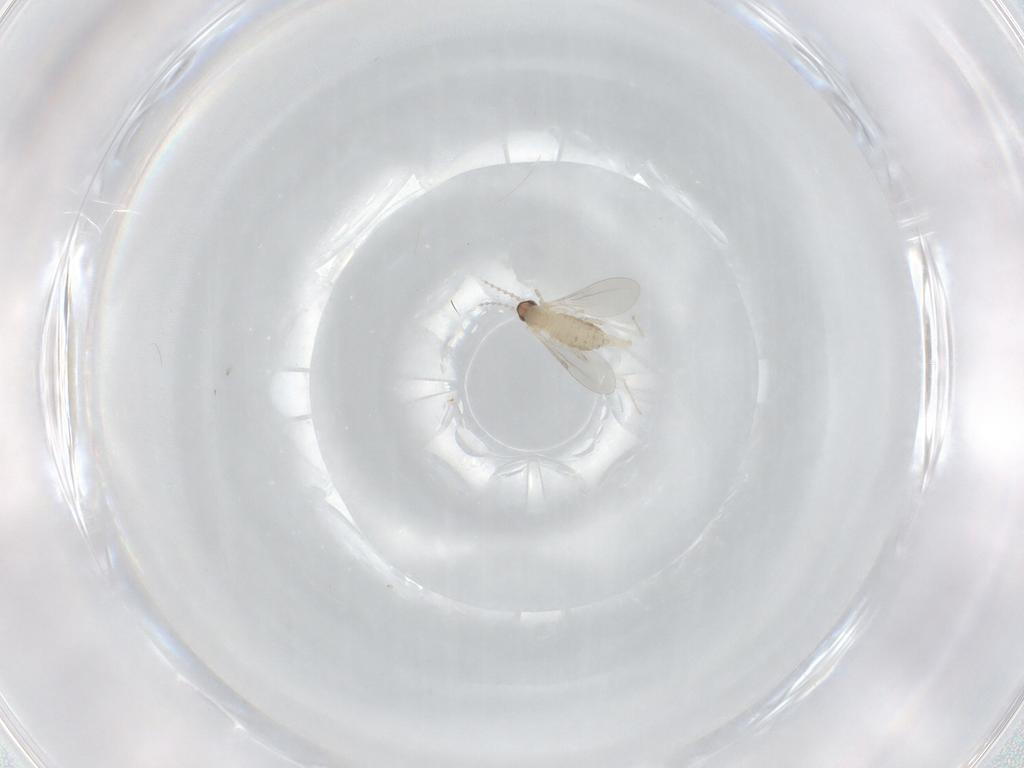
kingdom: Animalia
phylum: Arthropoda
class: Insecta
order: Diptera
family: Cecidomyiidae
